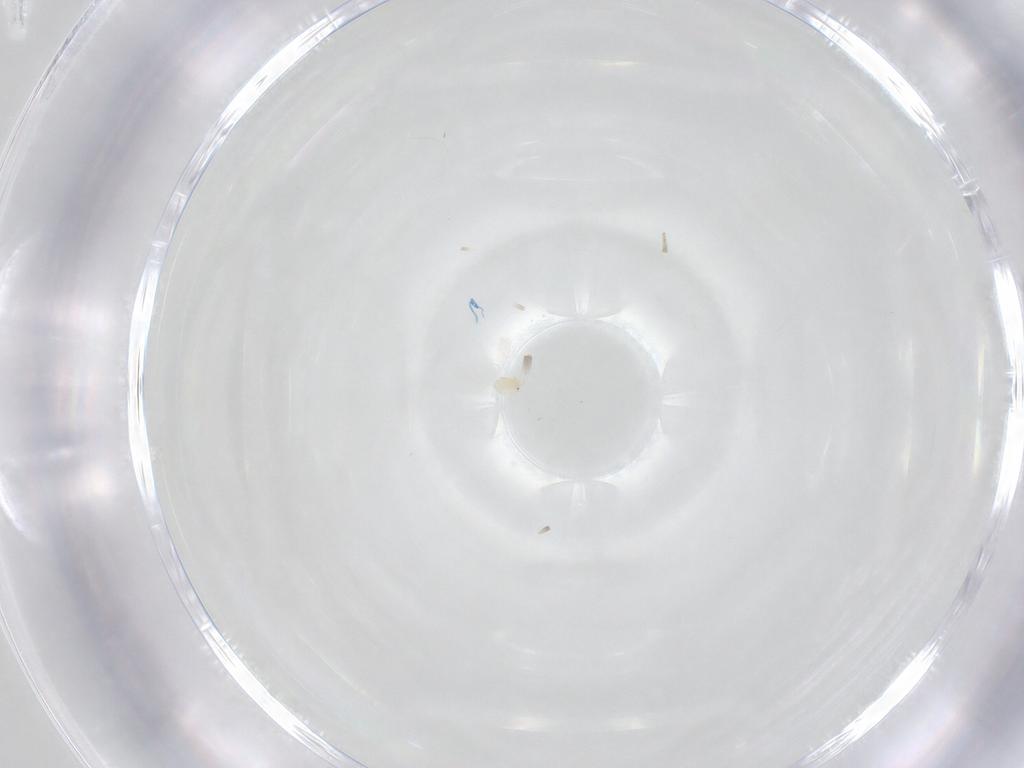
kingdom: Animalia
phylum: Arthropoda
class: Insecta
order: Diptera
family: Sarcophagidae
